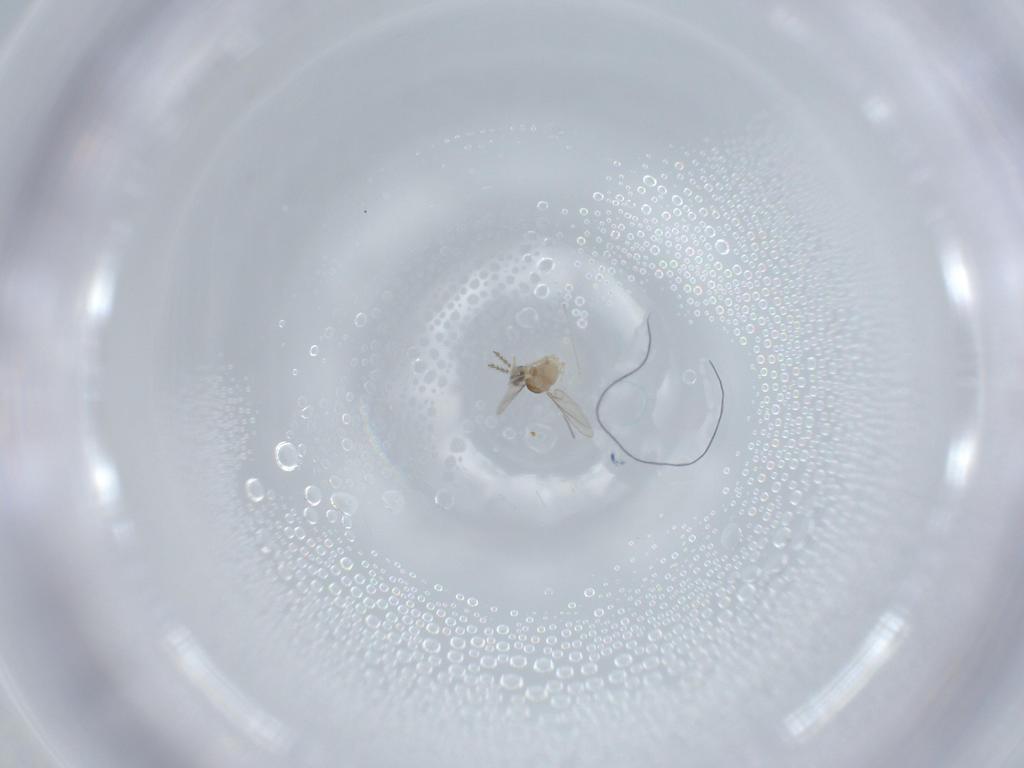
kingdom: Animalia
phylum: Arthropoda
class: Insecta
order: Diptera
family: Cecidomyiidae
